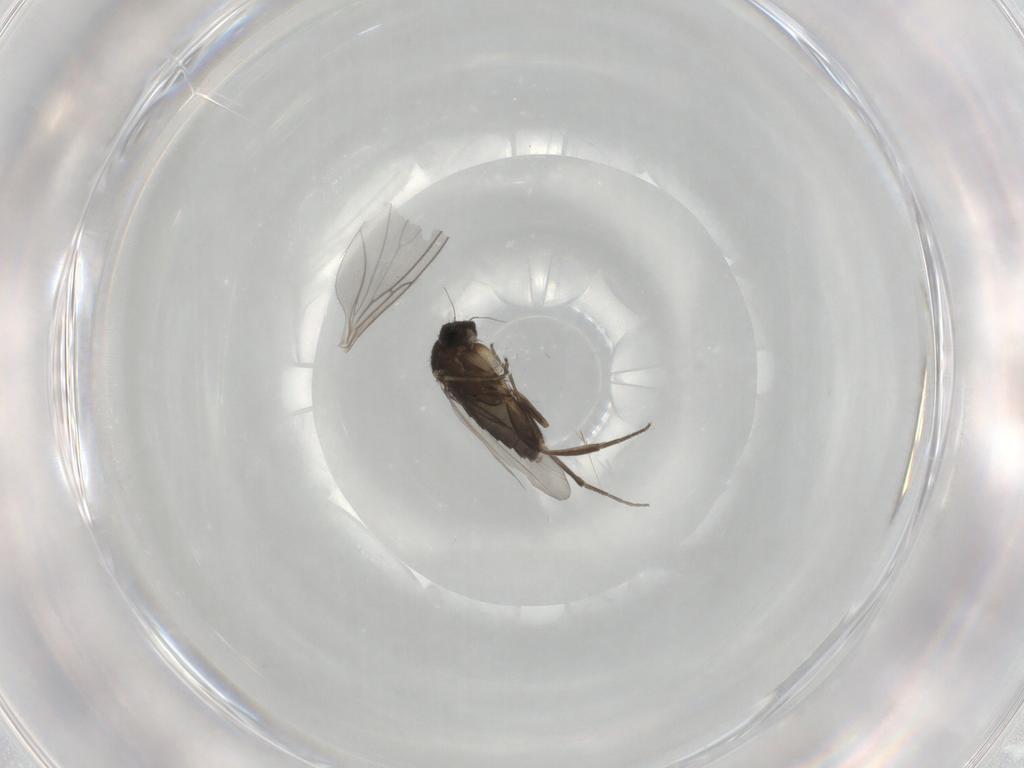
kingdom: Animalia
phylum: Arthropoda
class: Insecta
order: Diptera
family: Phoridae
